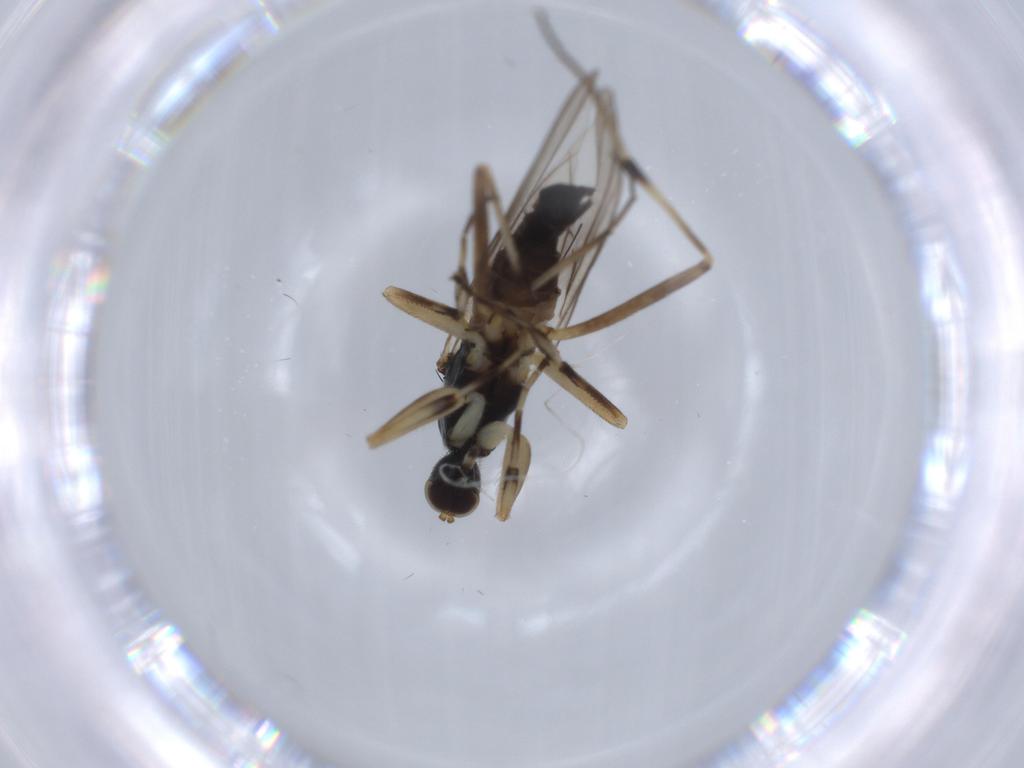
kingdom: Animalia
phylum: Arthropoda
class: Insecta
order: Diptera
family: Hybotidae
